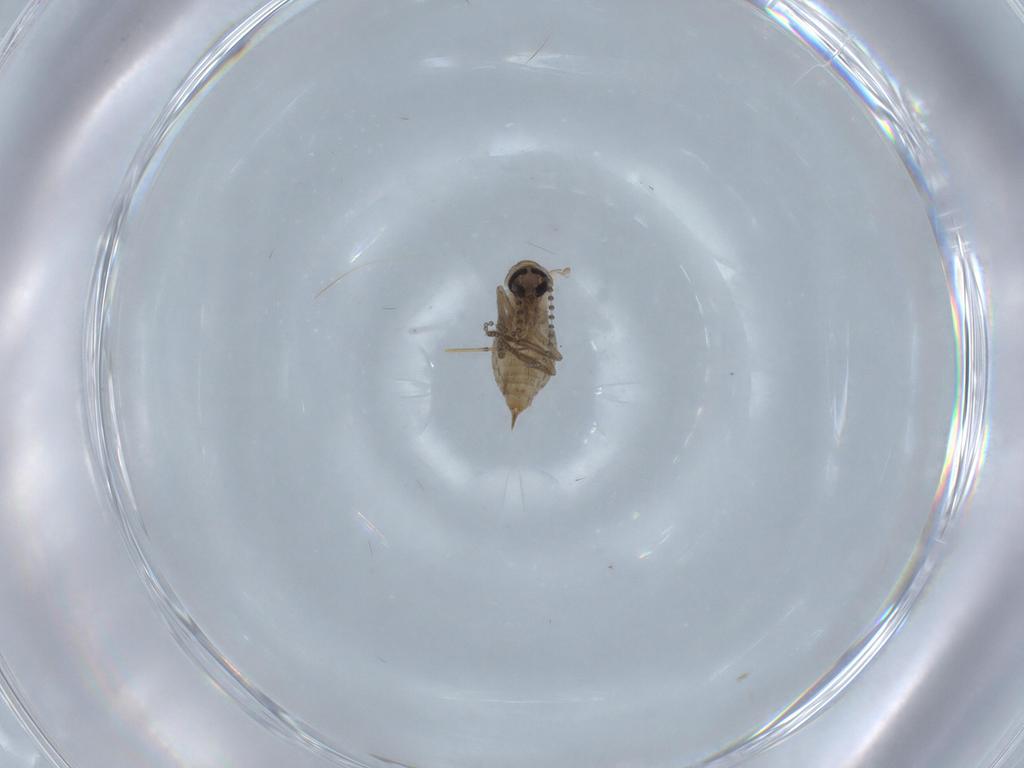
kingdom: Animalia
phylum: Arthropoda
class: Insecta
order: Diptera
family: Psychodidae
